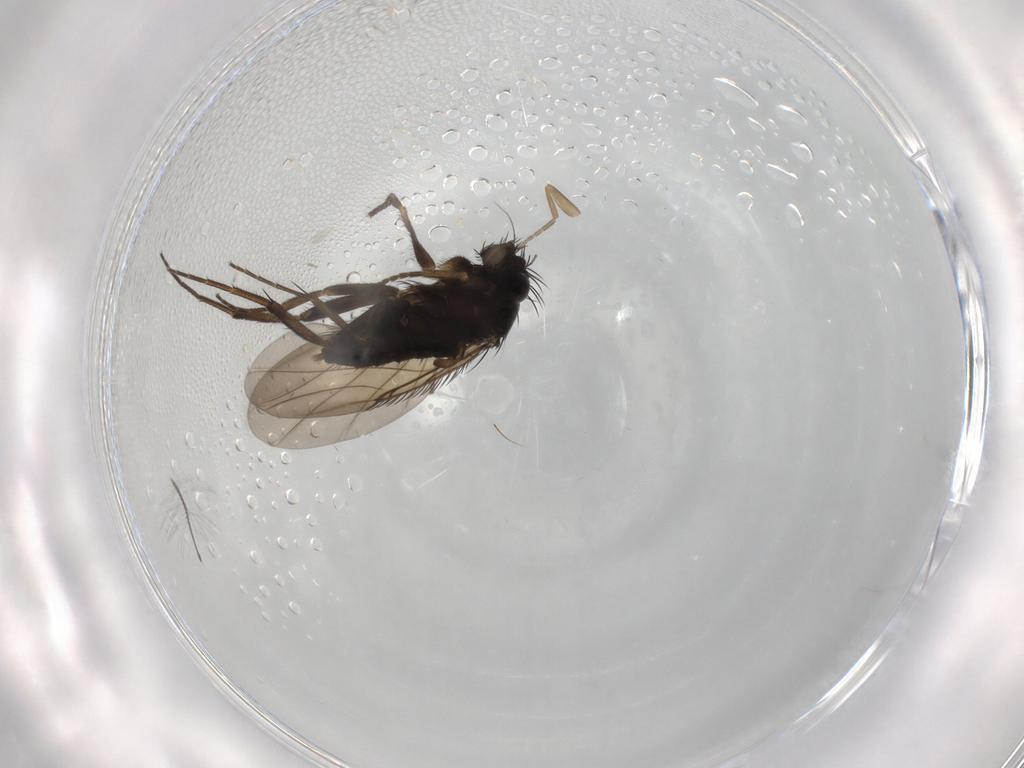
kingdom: Animalia
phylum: Arthropoda
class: Insecta
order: Diptera
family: Phoridae
